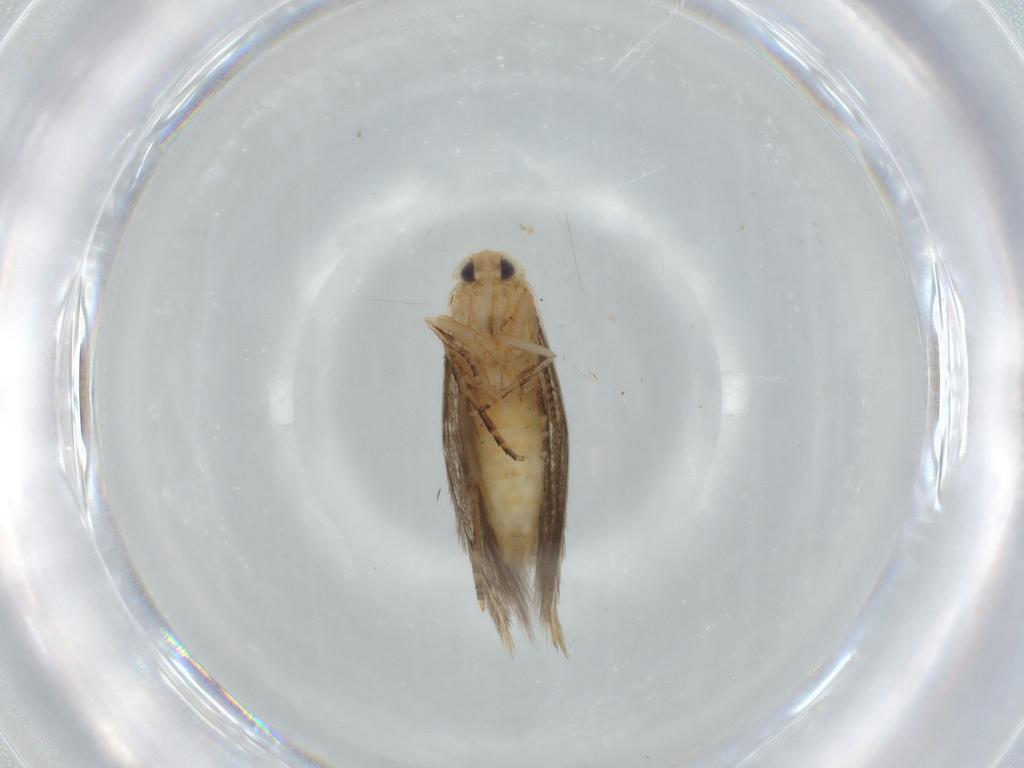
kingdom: Animalia
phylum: Arthropoda
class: Insecta
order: Lepidoptera
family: Bucculatricidae
